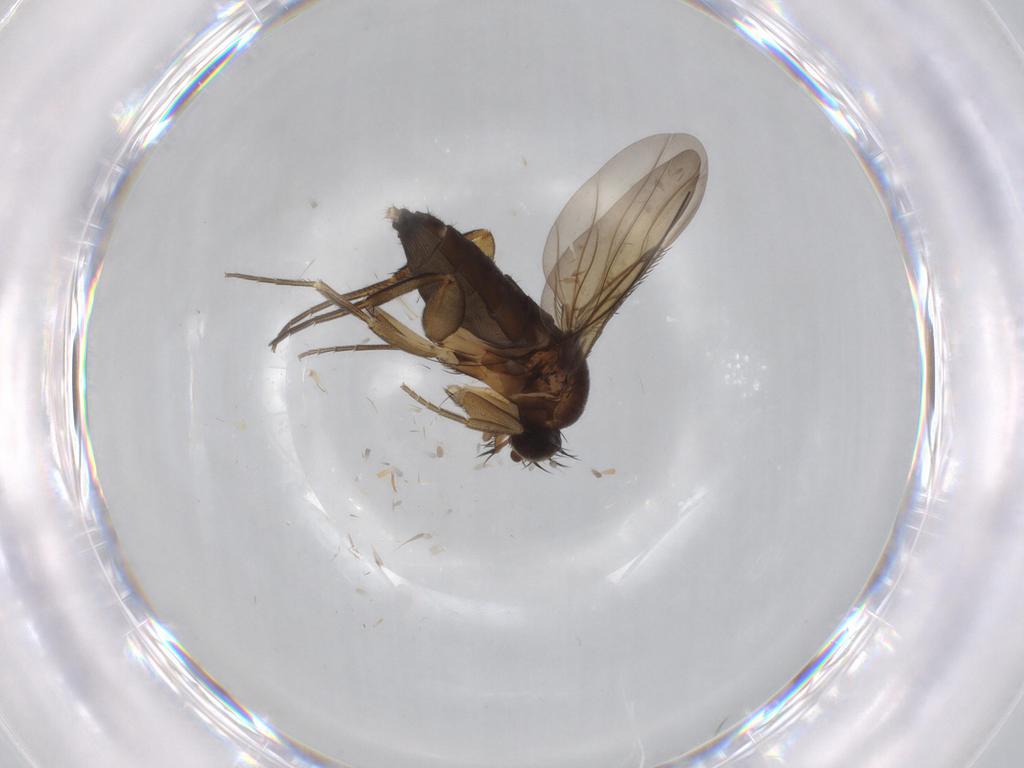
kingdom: Animalia
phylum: Arthropoda
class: Insecta
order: Diptera
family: Phoridae
